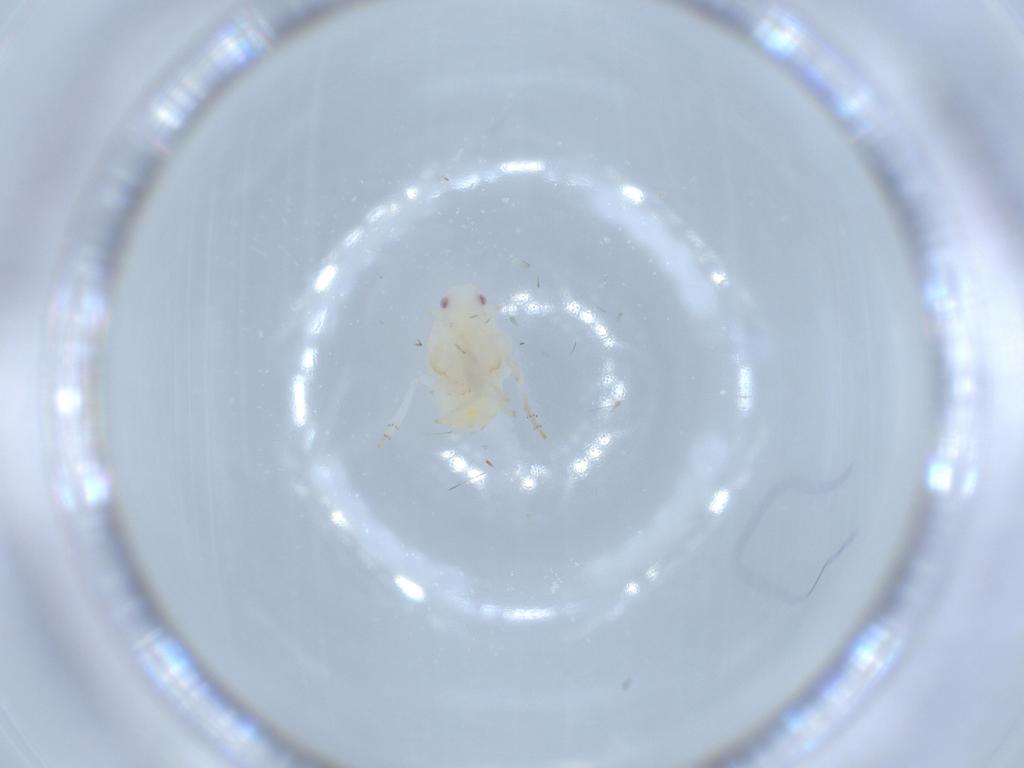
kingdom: Animalia
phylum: Arthropoda
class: Insecta
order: Hemiptera
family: Flatidae
